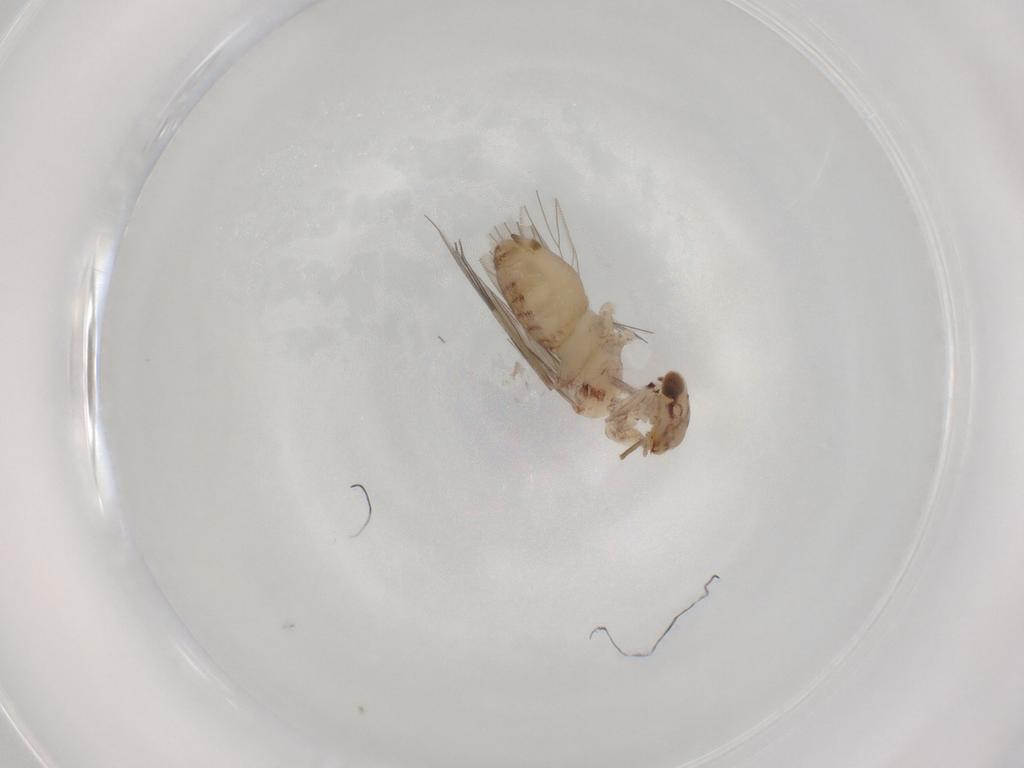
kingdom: Animalia
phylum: Arthropoda
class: Insecta
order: Psocodea
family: Lepidopsocidae
